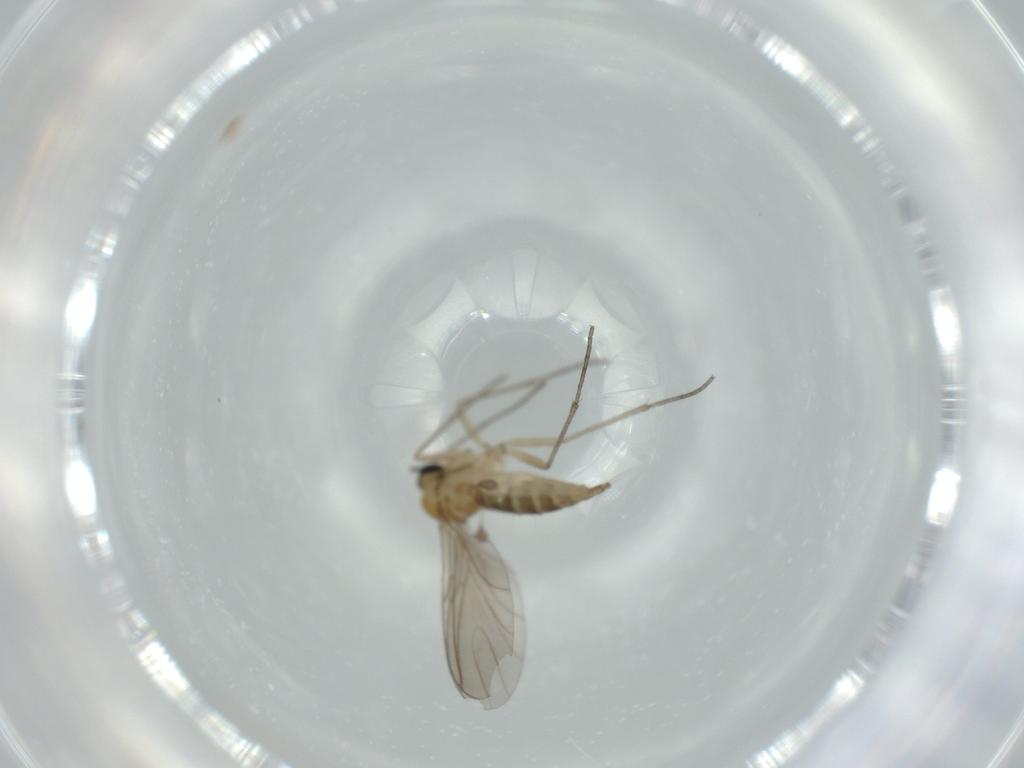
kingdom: Animalia
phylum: Arthropoda
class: Insecta
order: Diptera
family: Sciaridae
